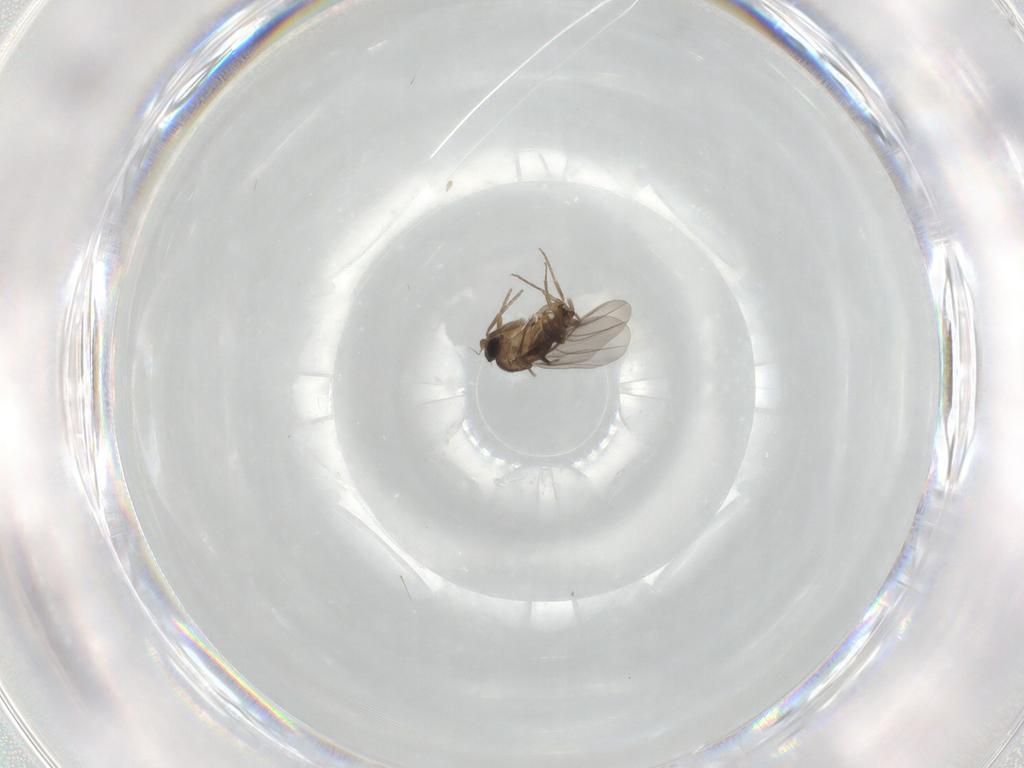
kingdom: Animalia
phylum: Arthropoda
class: Insecta
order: Diptera
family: Phoridae
